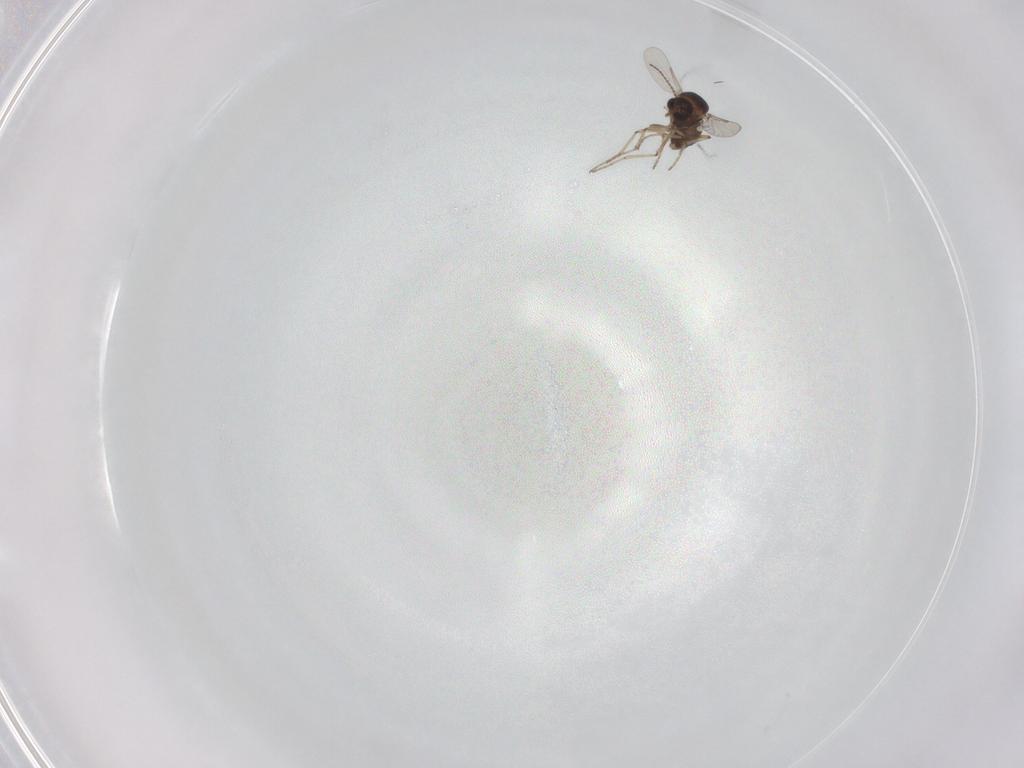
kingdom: Animalia
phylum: Arthropoda
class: Insecta
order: Diptera
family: Ceratopogonidae
